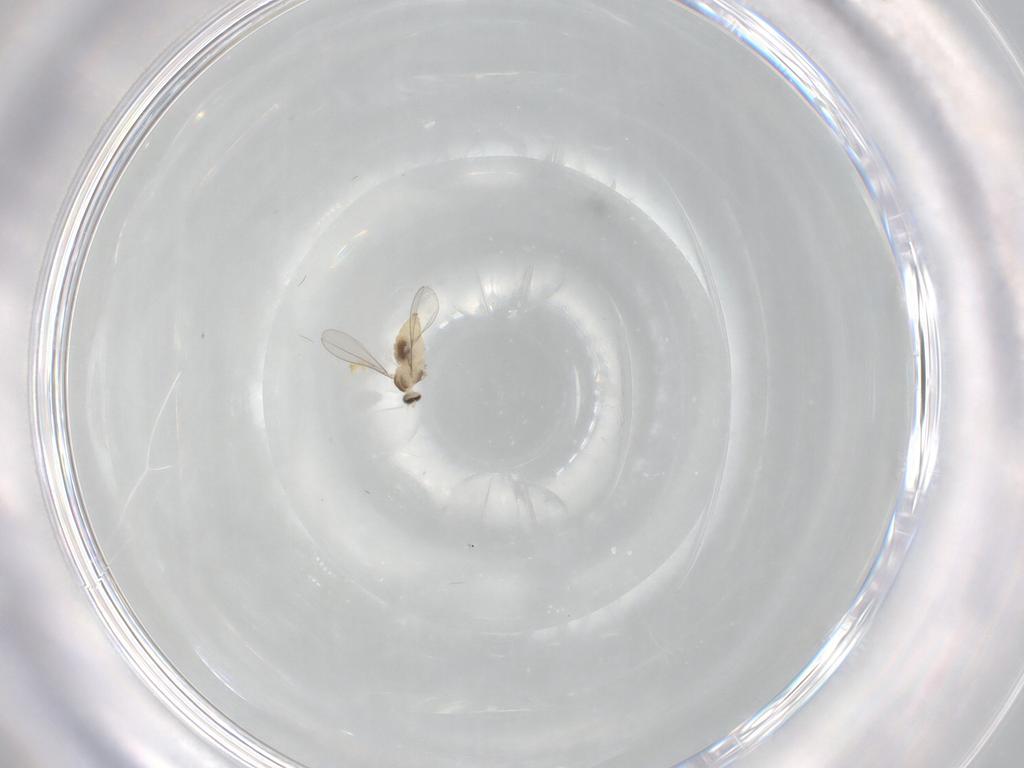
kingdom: Animalia
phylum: Arthropoda
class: Insecta
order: Diptera
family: Cecidomyiidae
